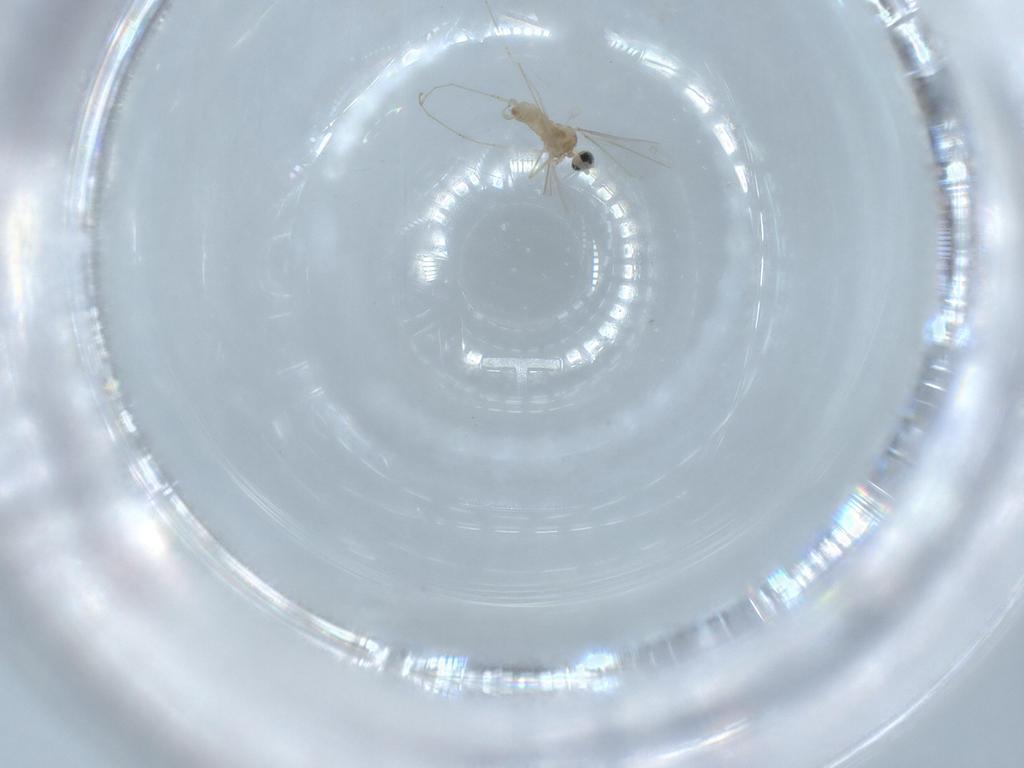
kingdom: Animalia
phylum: Arthropoda
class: Insecta
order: Diptera
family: Cecidomyiidae
